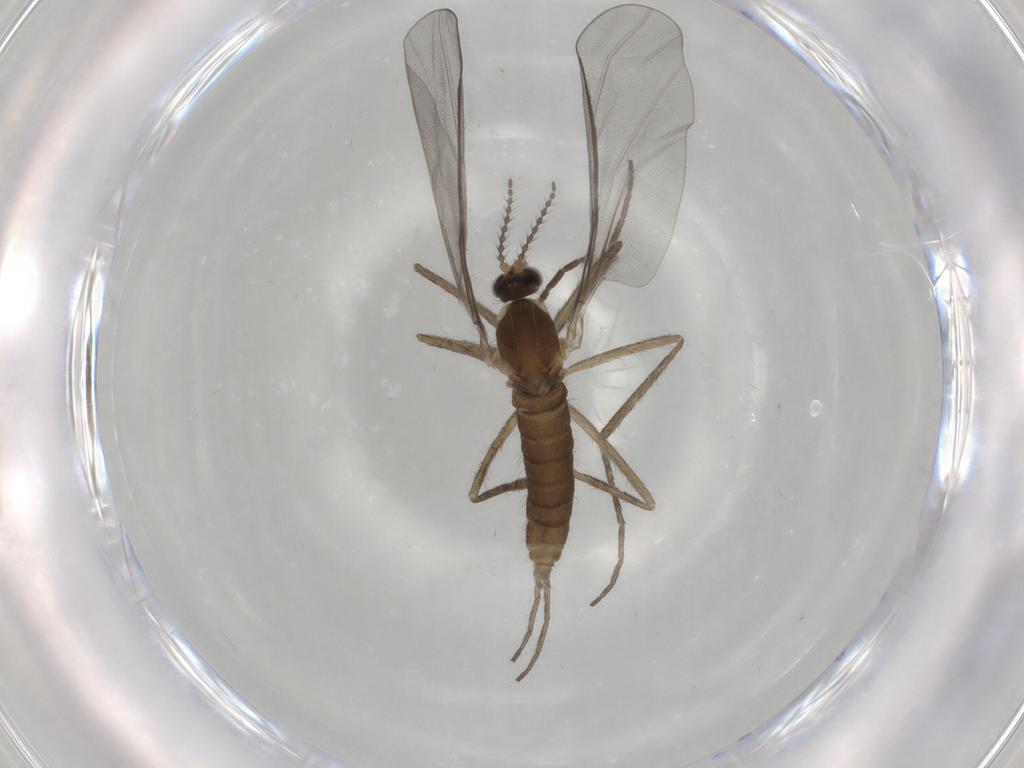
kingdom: Animalia
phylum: Arthropoda
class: Insecta
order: Diptera
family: Cecidomyiidae
